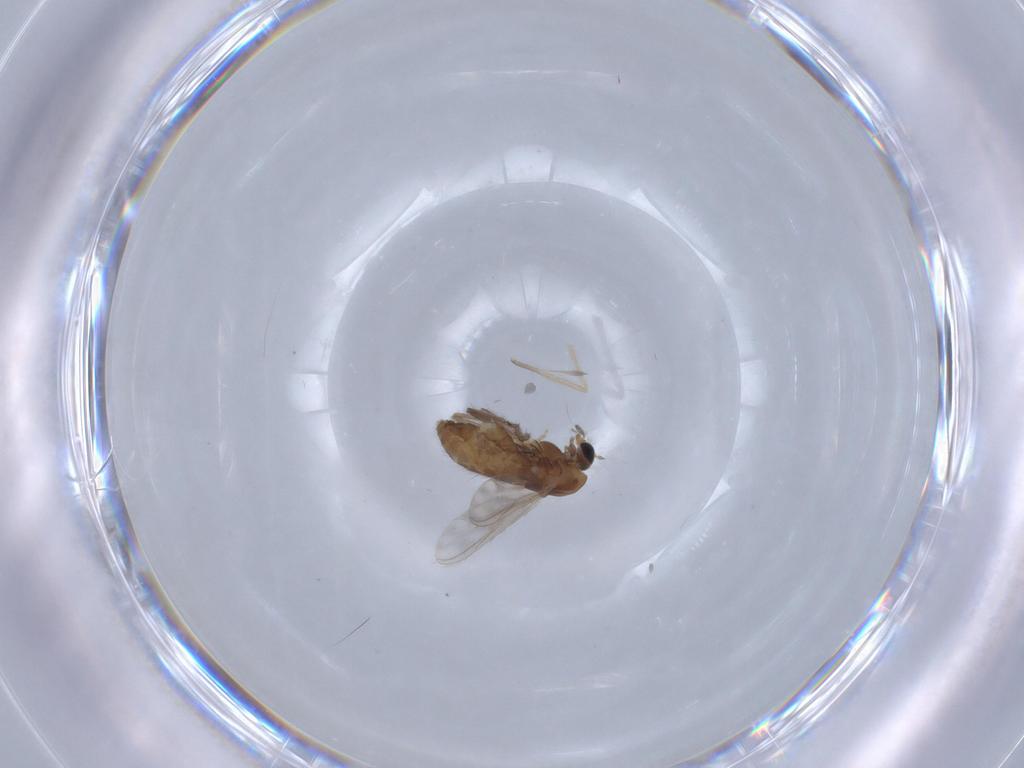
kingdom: Animalia
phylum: Arthropoda
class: Insecta
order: Diptera
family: Chironomidae
